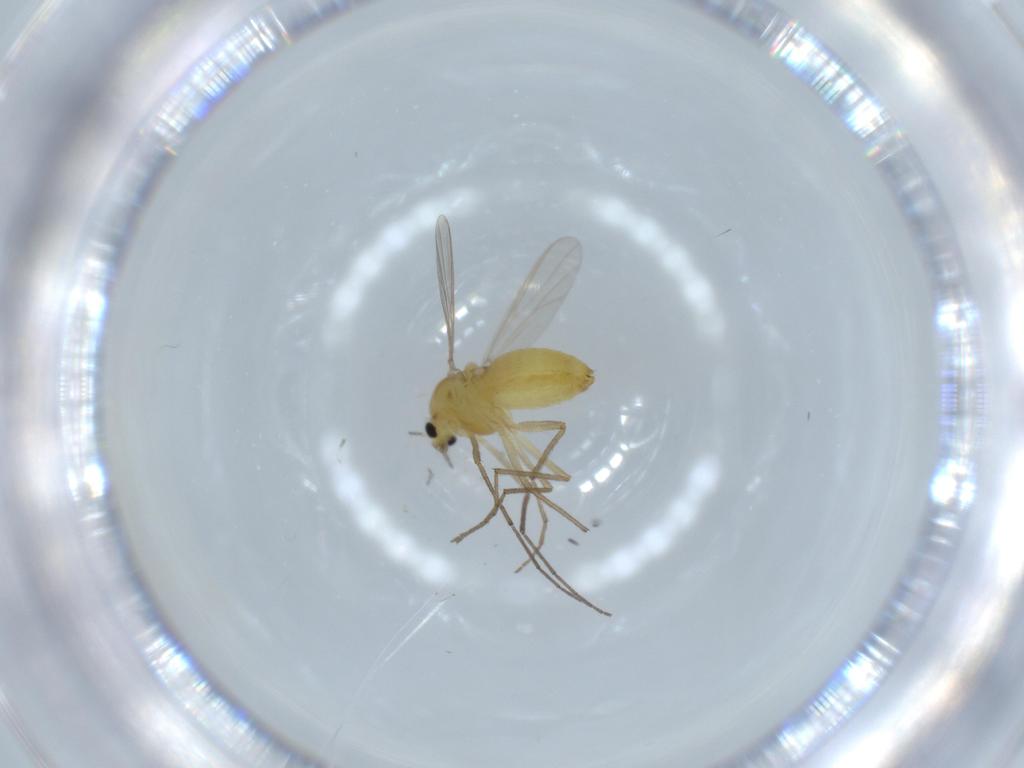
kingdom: Animalia
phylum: Arthropoda
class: Insecta
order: Diptera
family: Chironomidae
